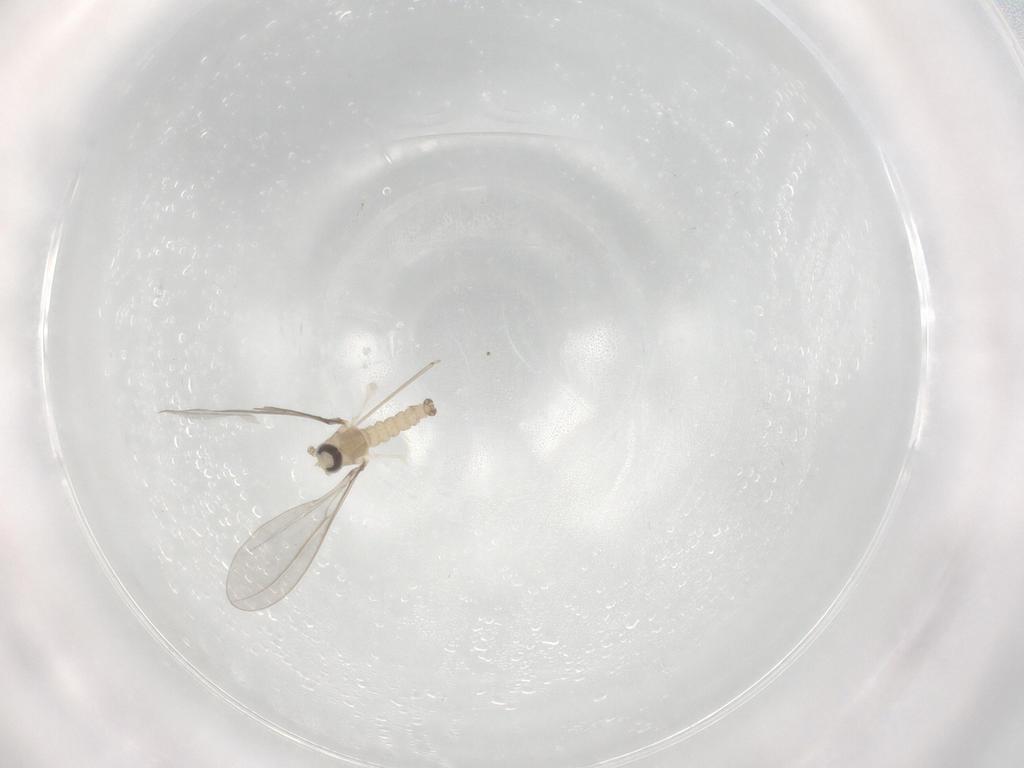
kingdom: Animalia
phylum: Arthropoda
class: Insecta
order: Diptera
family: Cecidomyiidae
